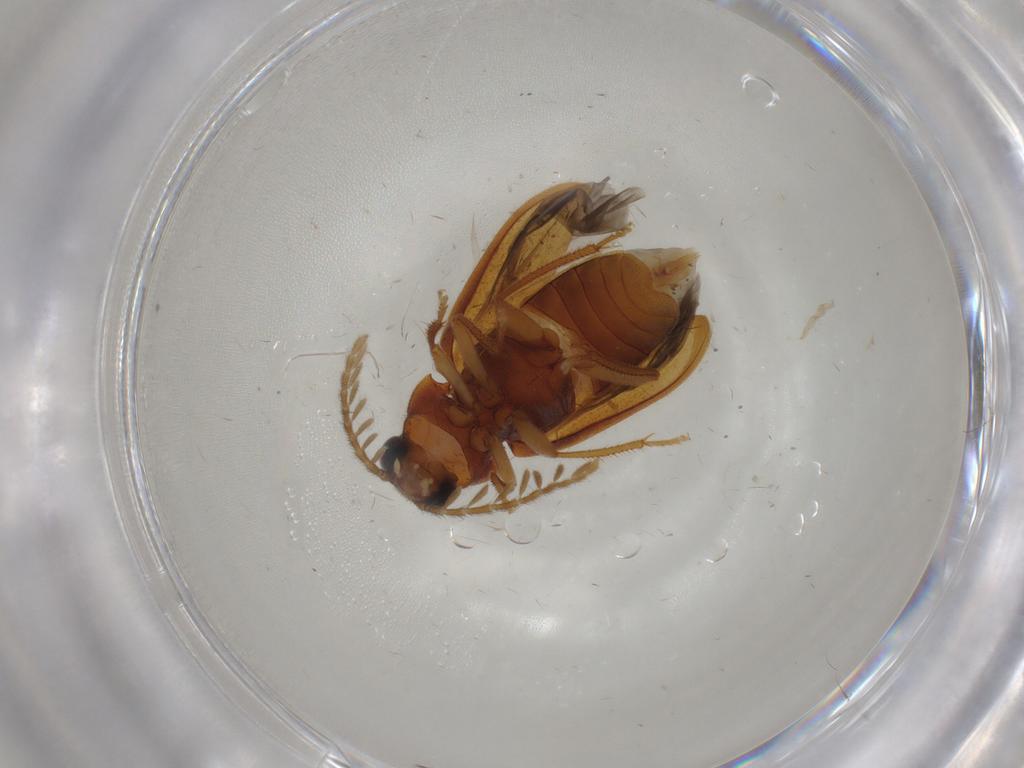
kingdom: Animalia
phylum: Arthropoda
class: Insecta
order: Coleoptera
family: Ptilodactylidae
